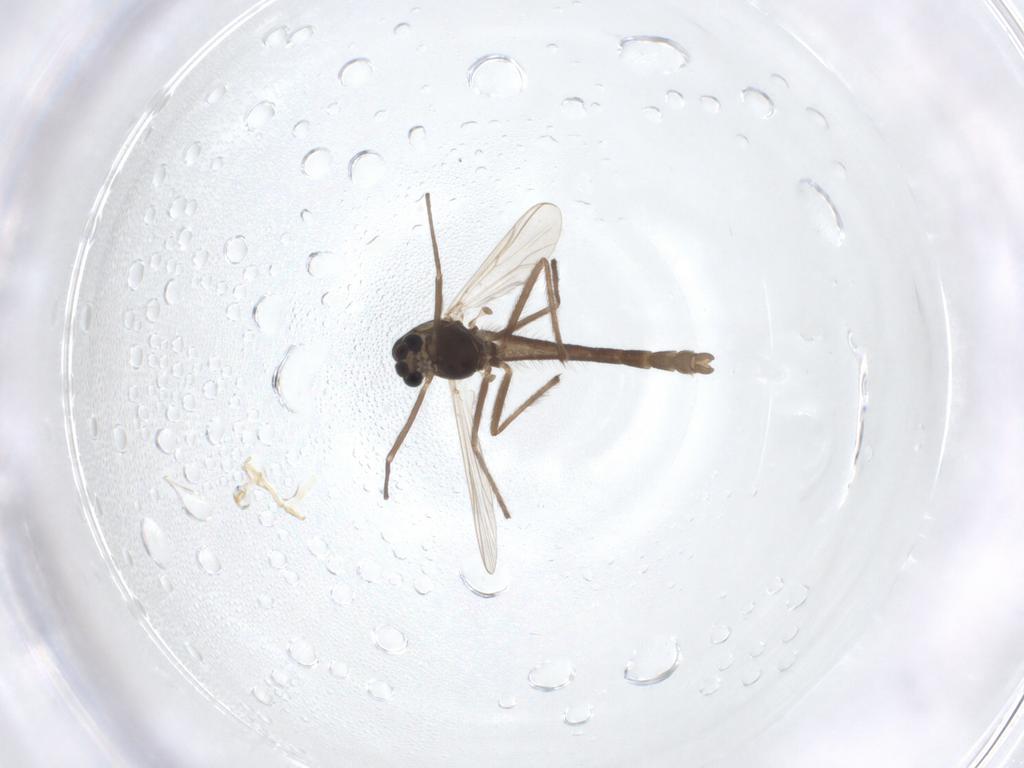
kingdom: Animalia
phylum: Arthropoda
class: Insecta
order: Diptera
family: Chironomidae
